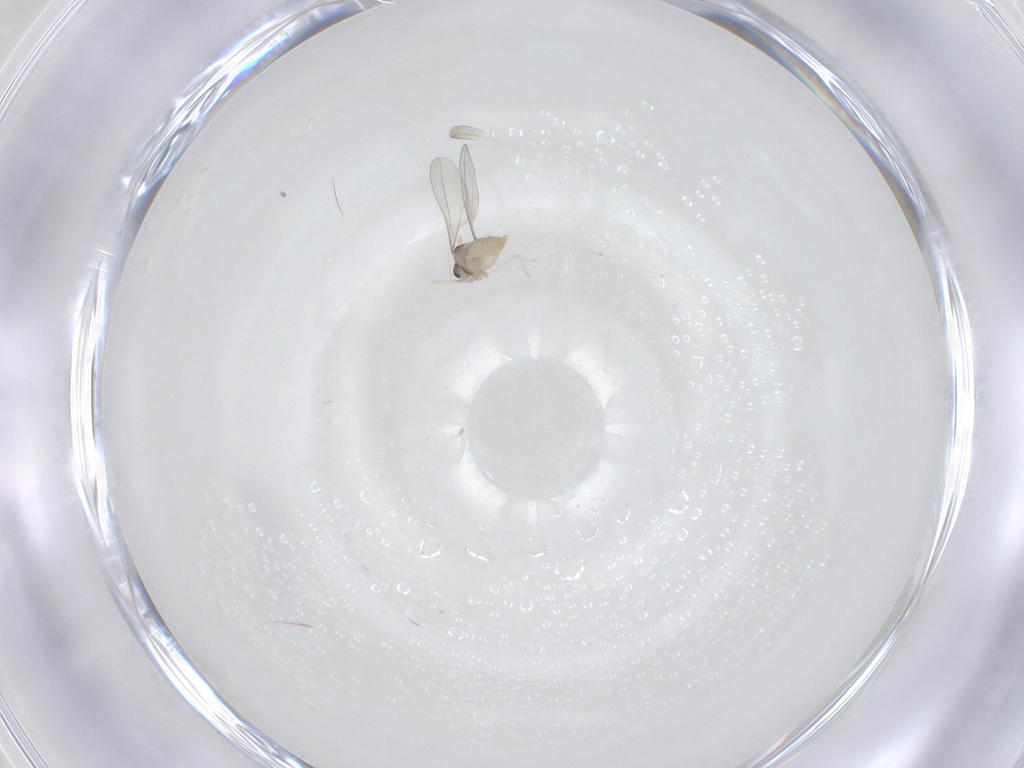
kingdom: Animalia
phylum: Arthropoda
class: Insecta
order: Diptera
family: Cecidomyiidae
